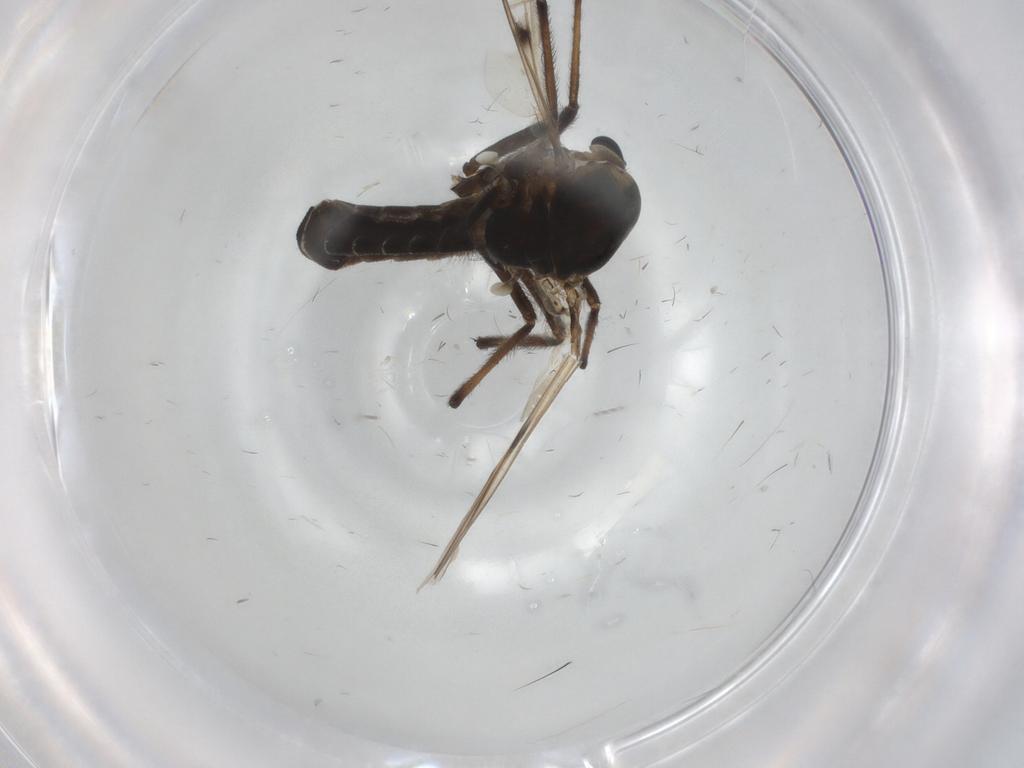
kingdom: Animalia
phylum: Arthropoda
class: Insecta
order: Diptera
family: Chironomidae
